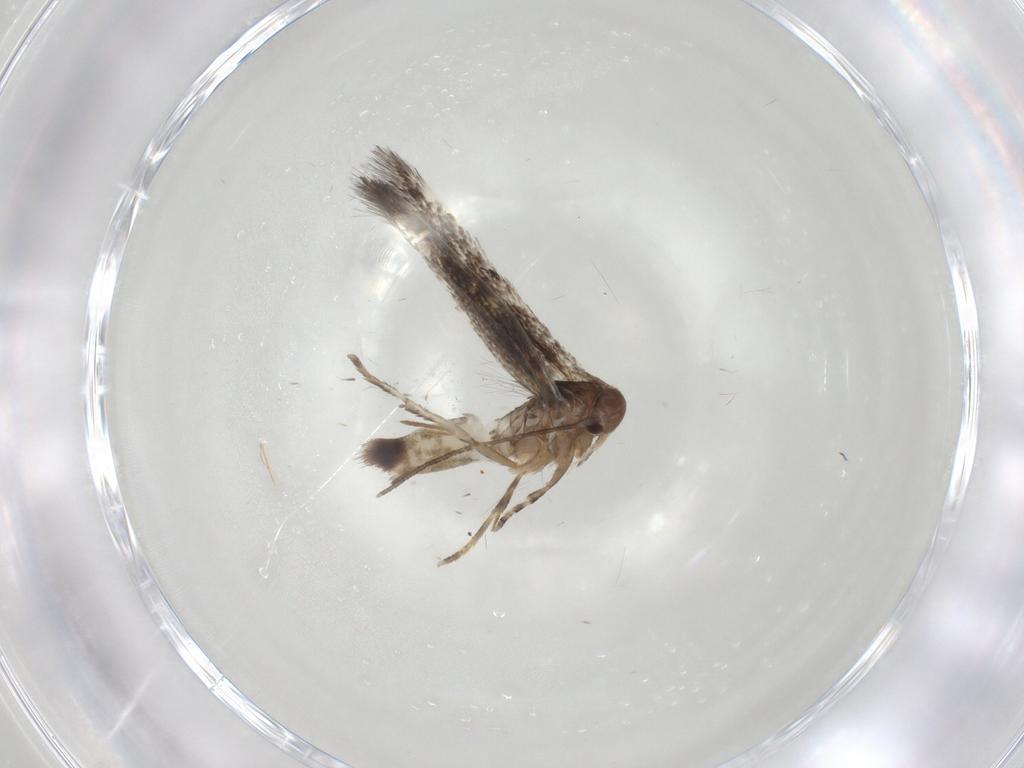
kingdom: Animalia
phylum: Arthropoda
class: Insecta
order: Lepidoptera
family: Elachistidae
